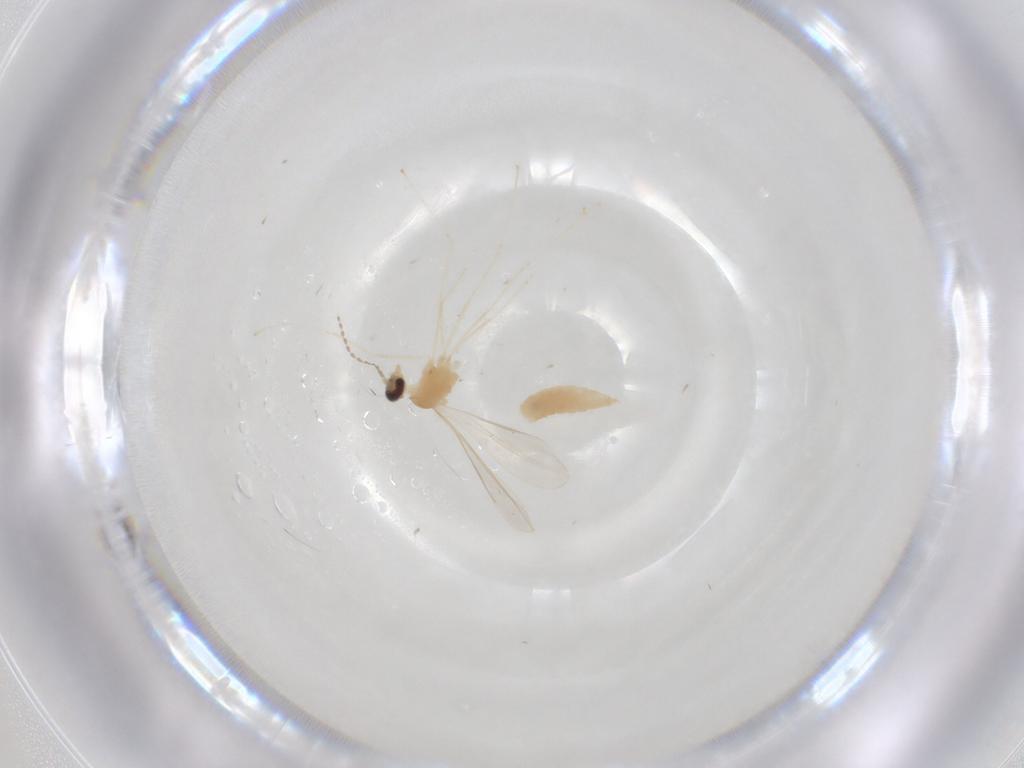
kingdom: Animalia
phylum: Arthropoda
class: Insecta
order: Diptera
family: Cecidomyiidae
